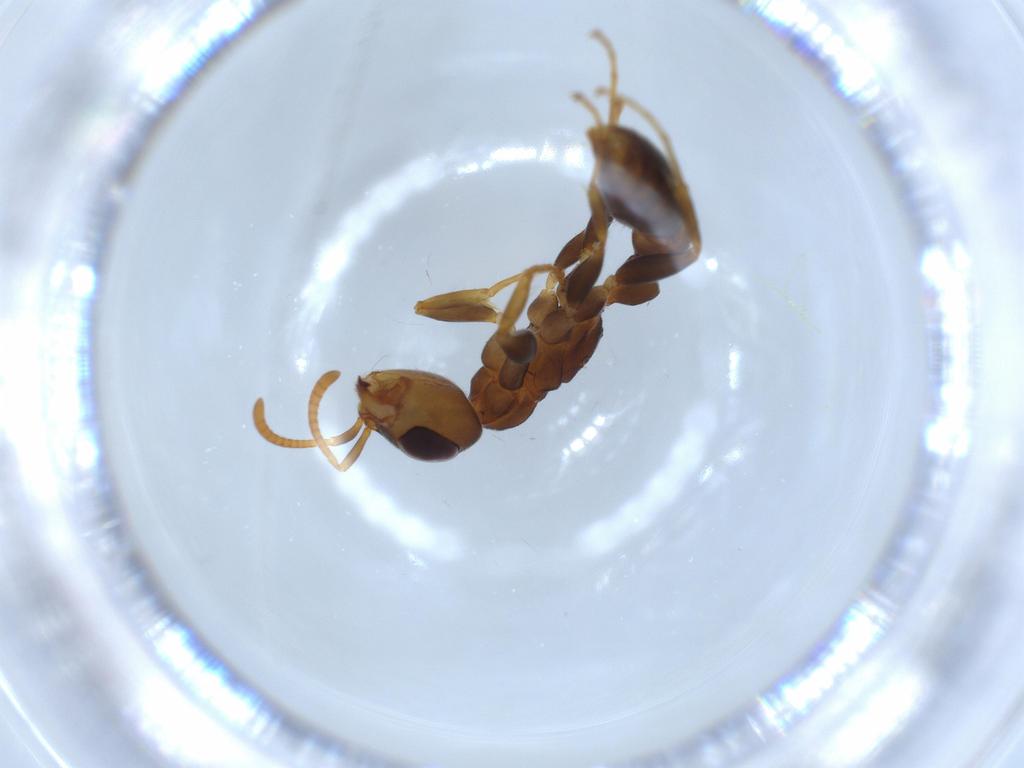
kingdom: Animalia
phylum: Arthropoda
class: Insecta
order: Hymenoptera
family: Formicidae
